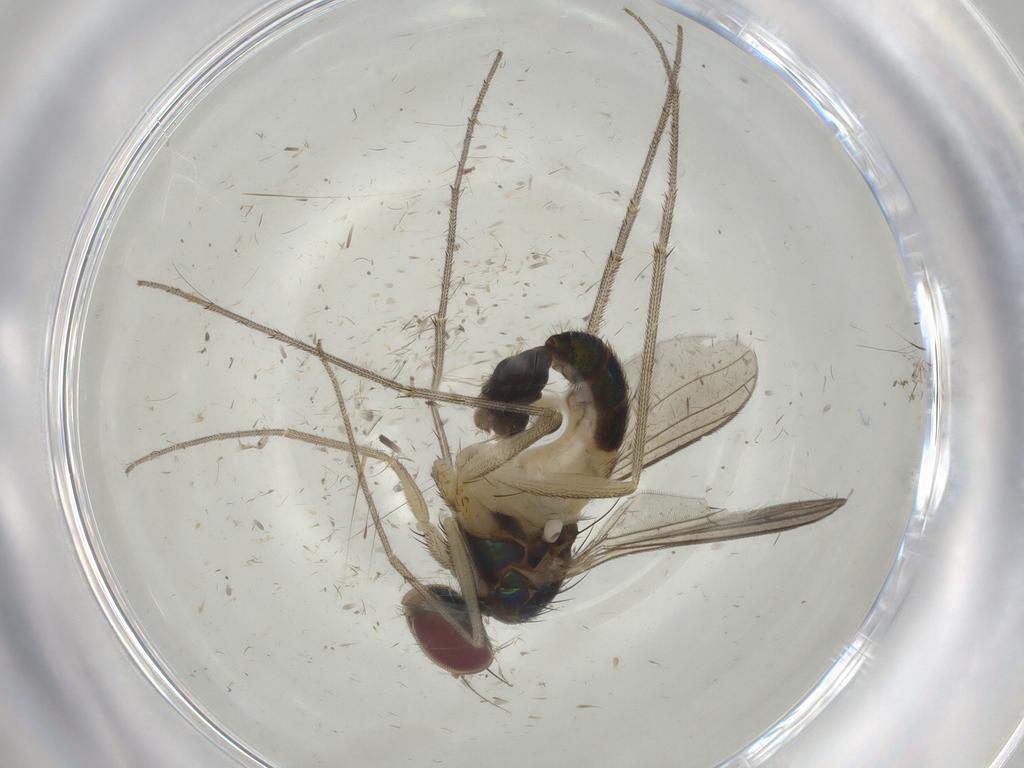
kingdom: Animalia
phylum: Arthropoda
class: Insecta
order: Diptera
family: Dolichopodidae
